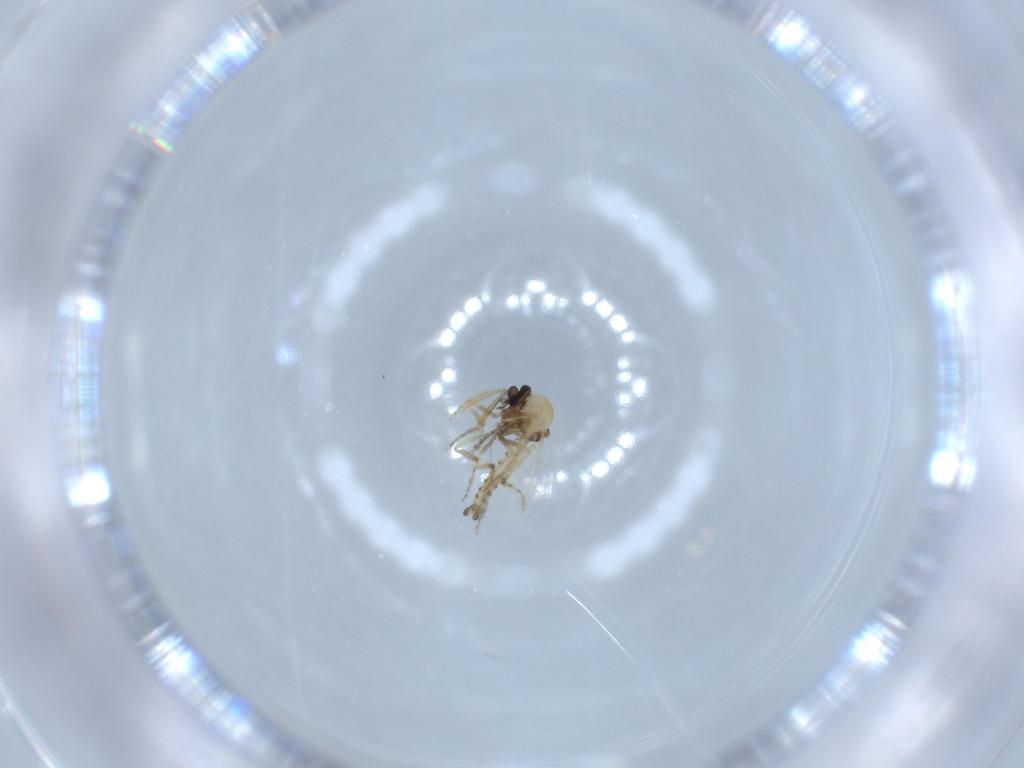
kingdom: Animalia
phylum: Arthropoda
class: Insecta
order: Diptera
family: Ceratopogonidae
